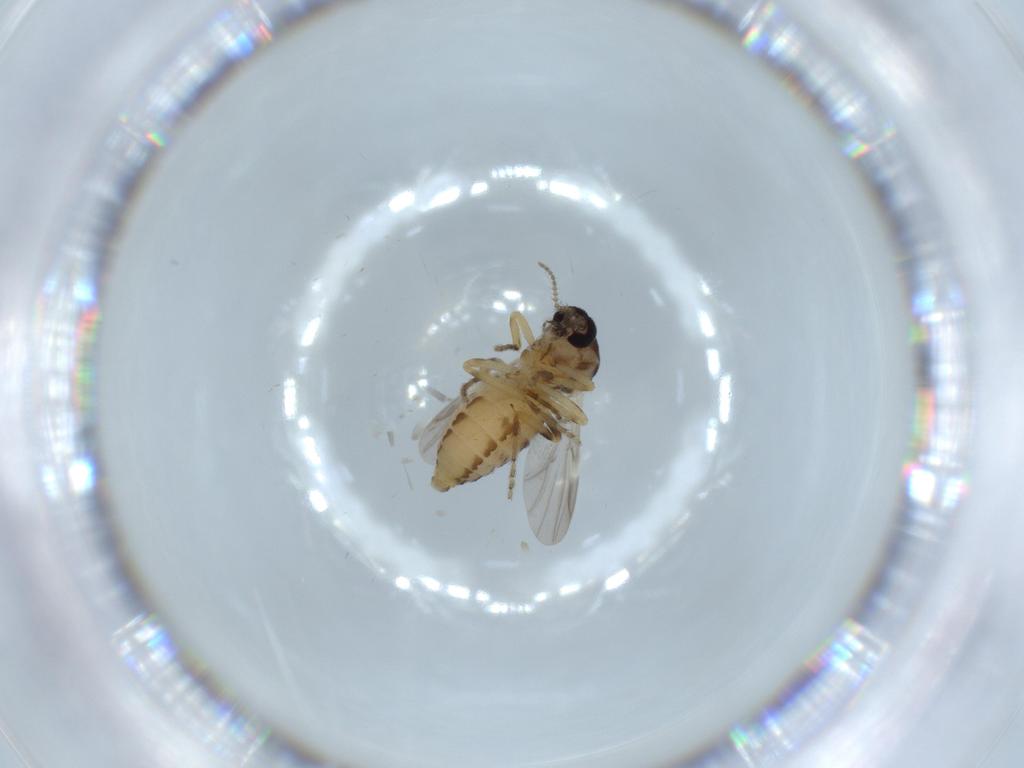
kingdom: Animalia
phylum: Arthropoda
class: Insecta
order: Diptera
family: Ceratopogonidae
